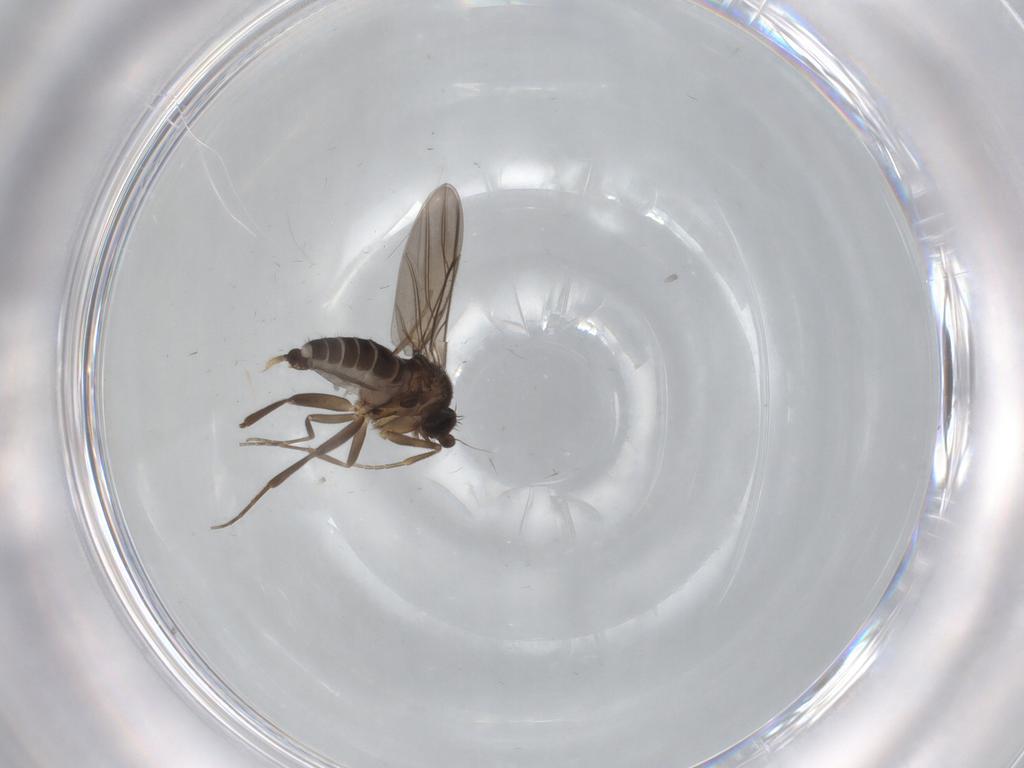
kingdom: Animalia
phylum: Arthropoda
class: Insecta
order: Diptera
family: Phoridae
